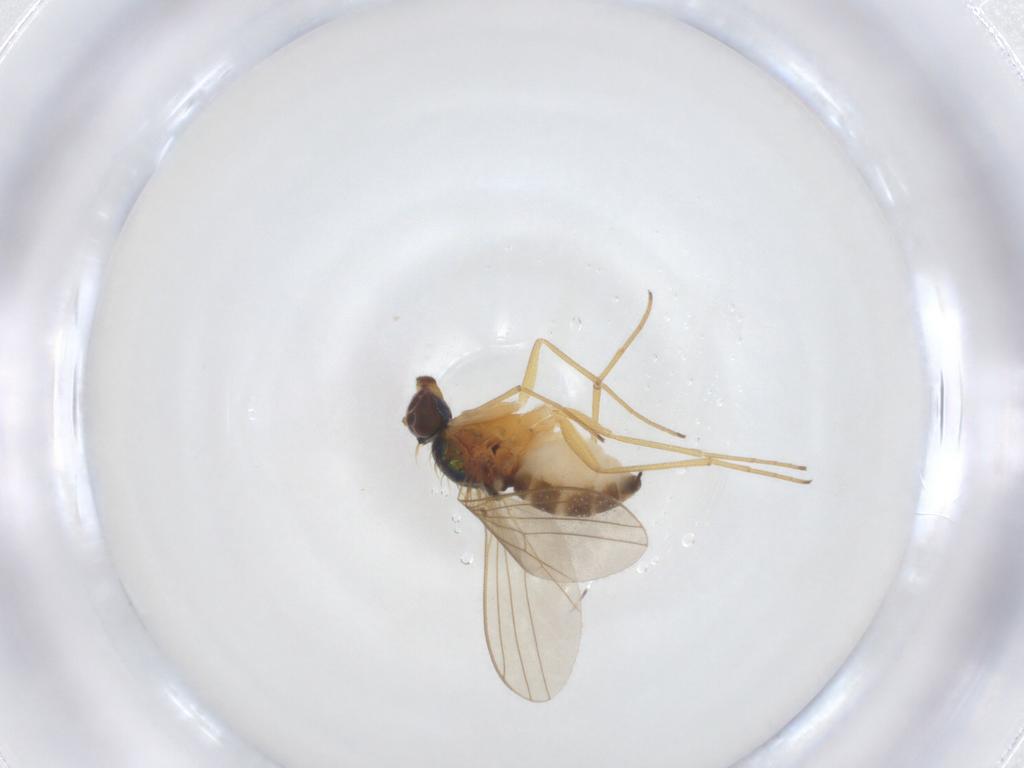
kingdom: Animalia
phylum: Arthropoda
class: Insecta
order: Diptera
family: Dolichopodidae
